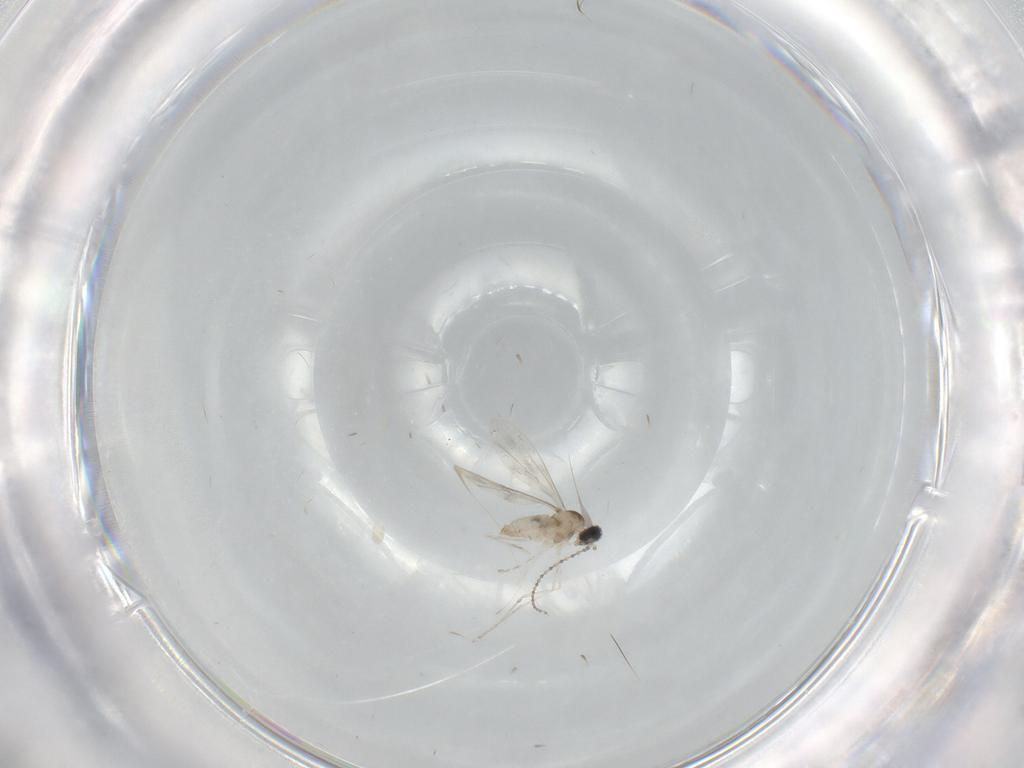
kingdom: Animalia
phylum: Arthropoda
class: Insecta
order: Diptera
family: Cecidomyiidae
